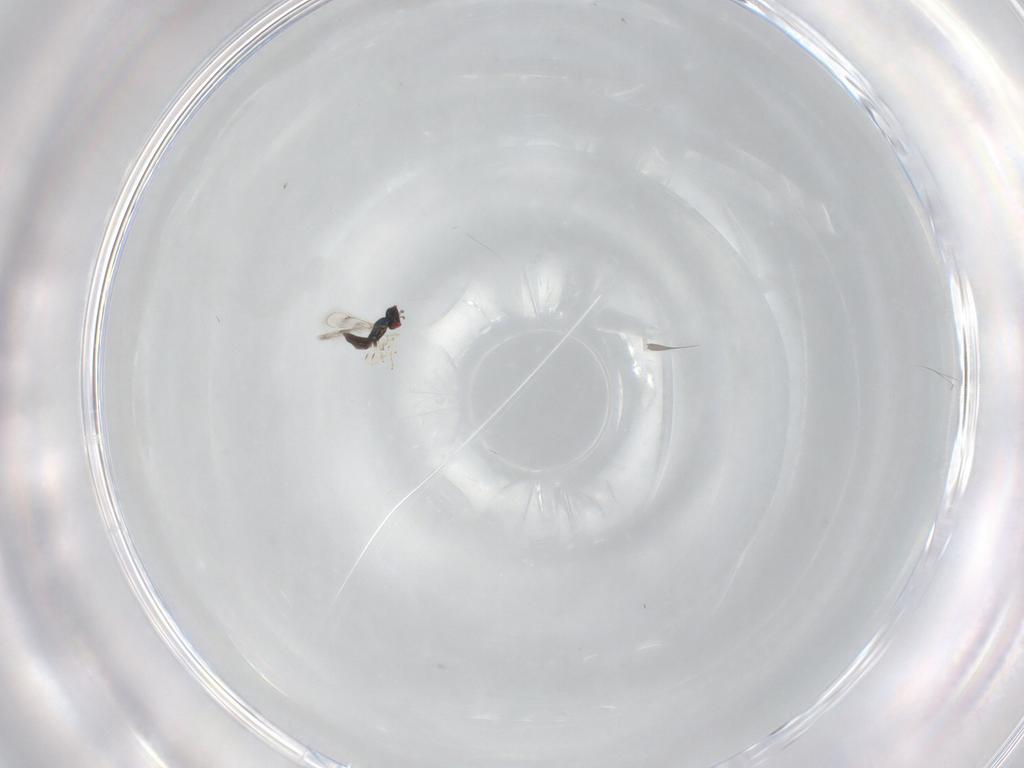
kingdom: Animalia
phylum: Arthropoda
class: Insecta
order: Hymenoptera
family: Eulophidae
